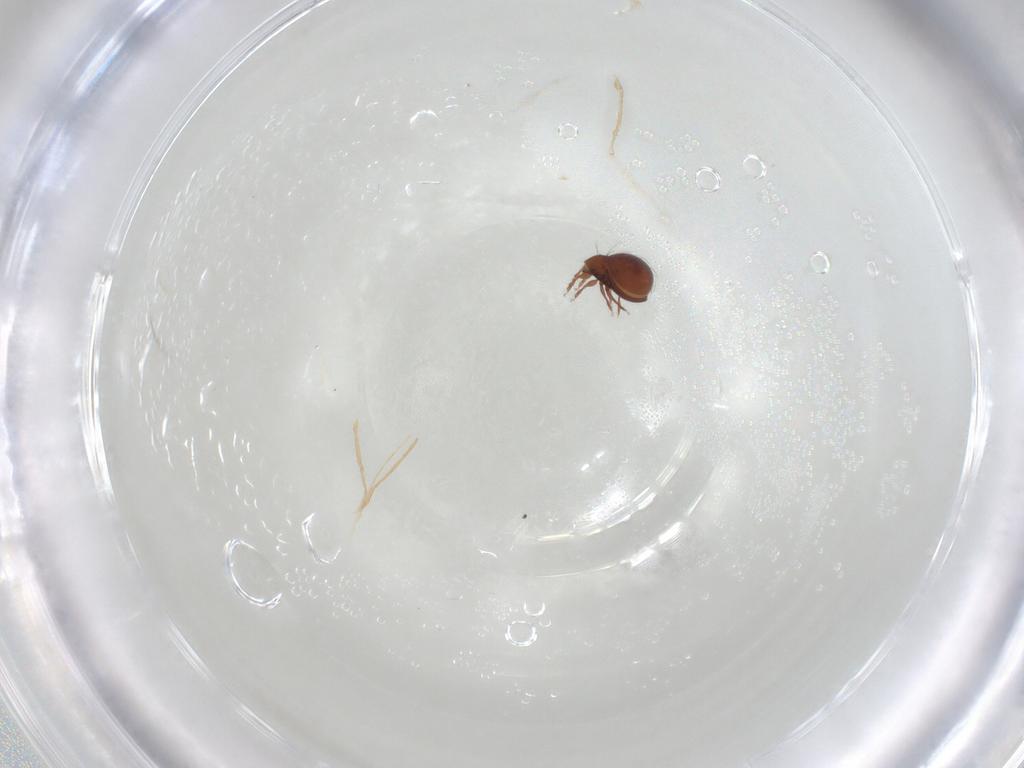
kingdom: Animalia
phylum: Arthropoda
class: Arachnida
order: Sarcoptiformes
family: Oribatulidae
